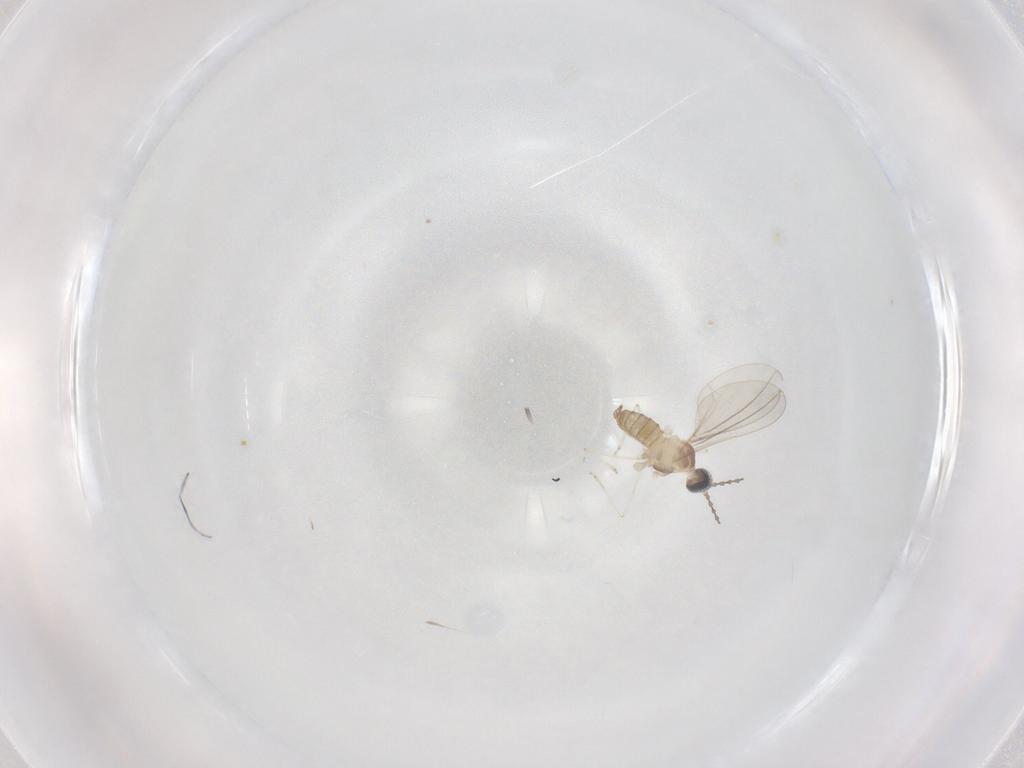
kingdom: Animalia
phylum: Arthropoda
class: Insecta
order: Diptera
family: Cecidomyiidae
